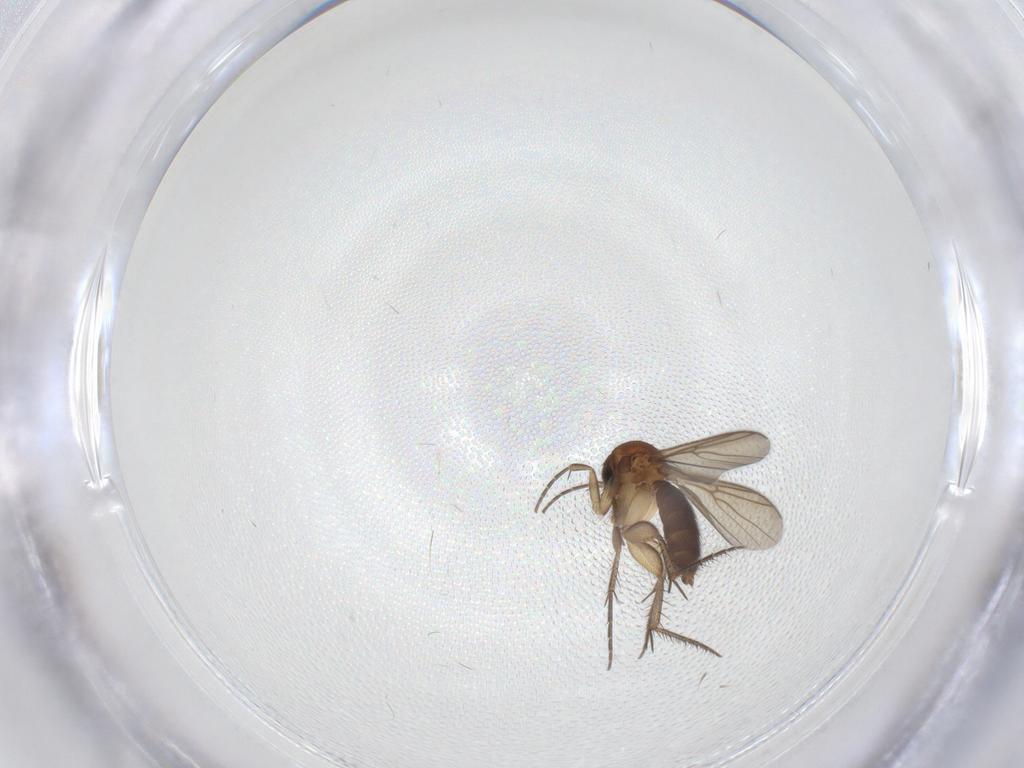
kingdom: Animalia
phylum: Arthropoda
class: Insecta
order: Diptera
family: Mycetophilidae
